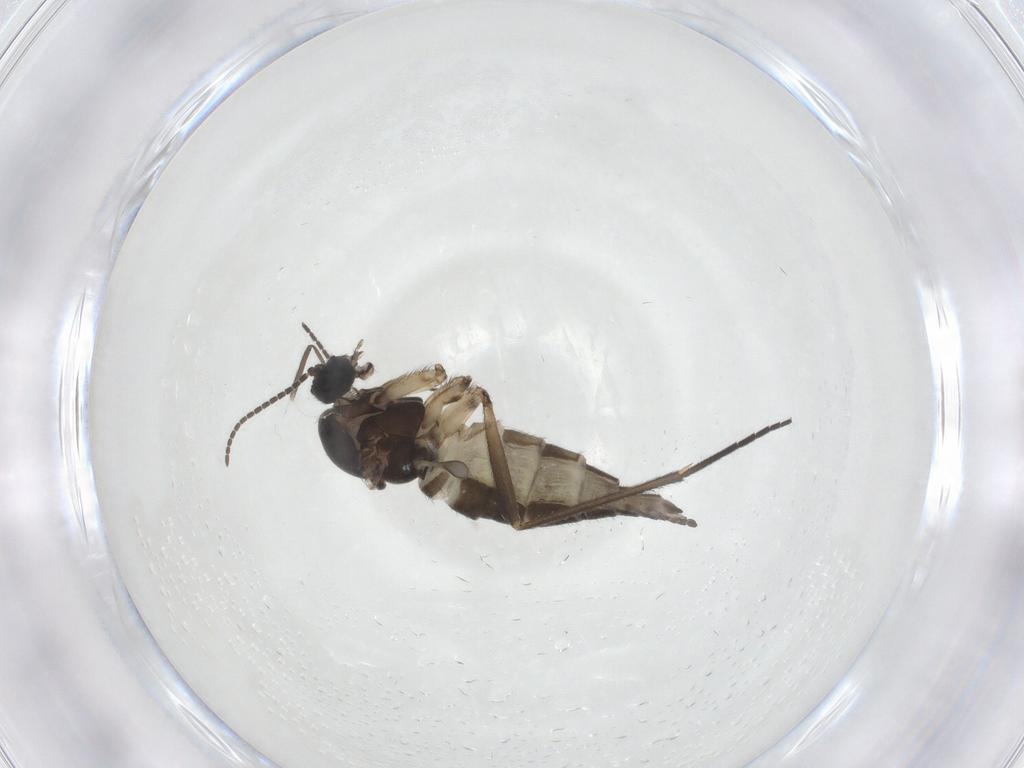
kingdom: Animalia
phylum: Arthropoda
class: Insecta
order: Diptera
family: Sciaridae
